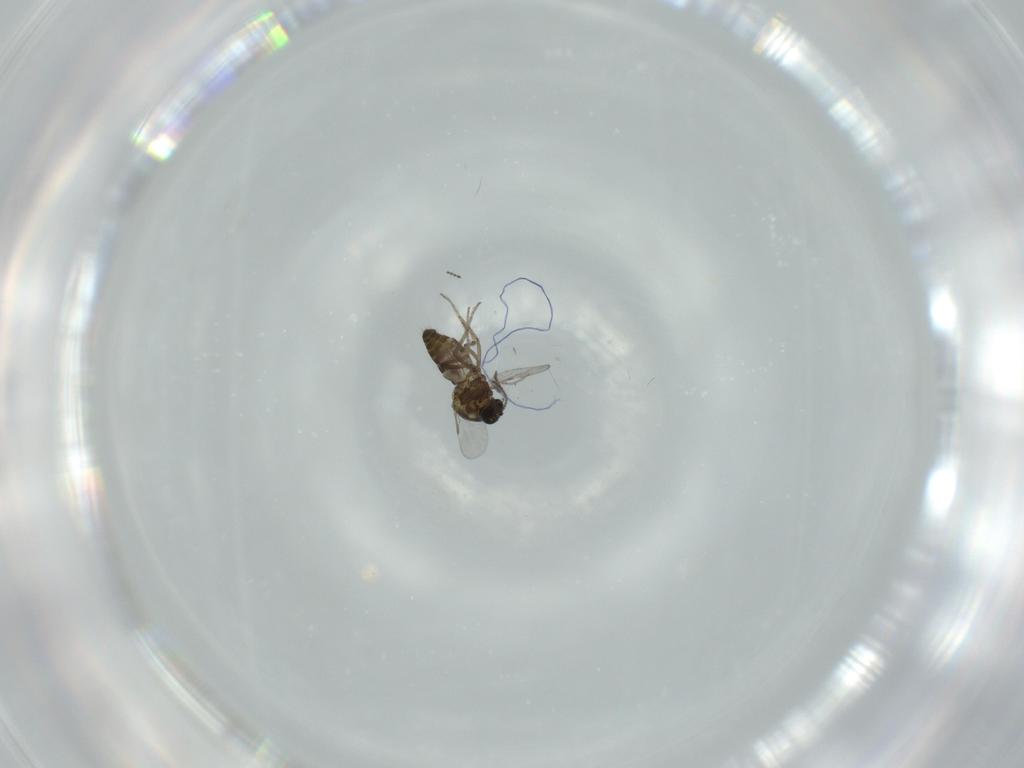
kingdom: Animalia
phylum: Arthropoda
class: Insecta
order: Diptera
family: Ceratopogonidae
